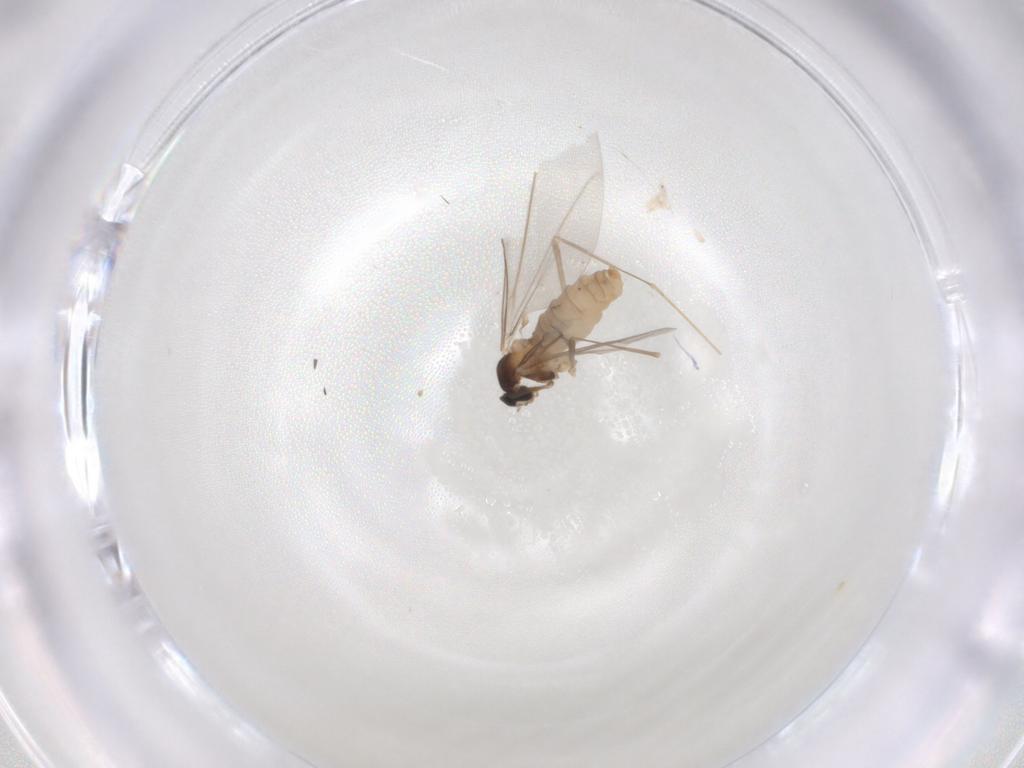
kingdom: Animalia
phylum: Arthropoda
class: Insecta
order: Diptera
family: Cecidomyiidae
